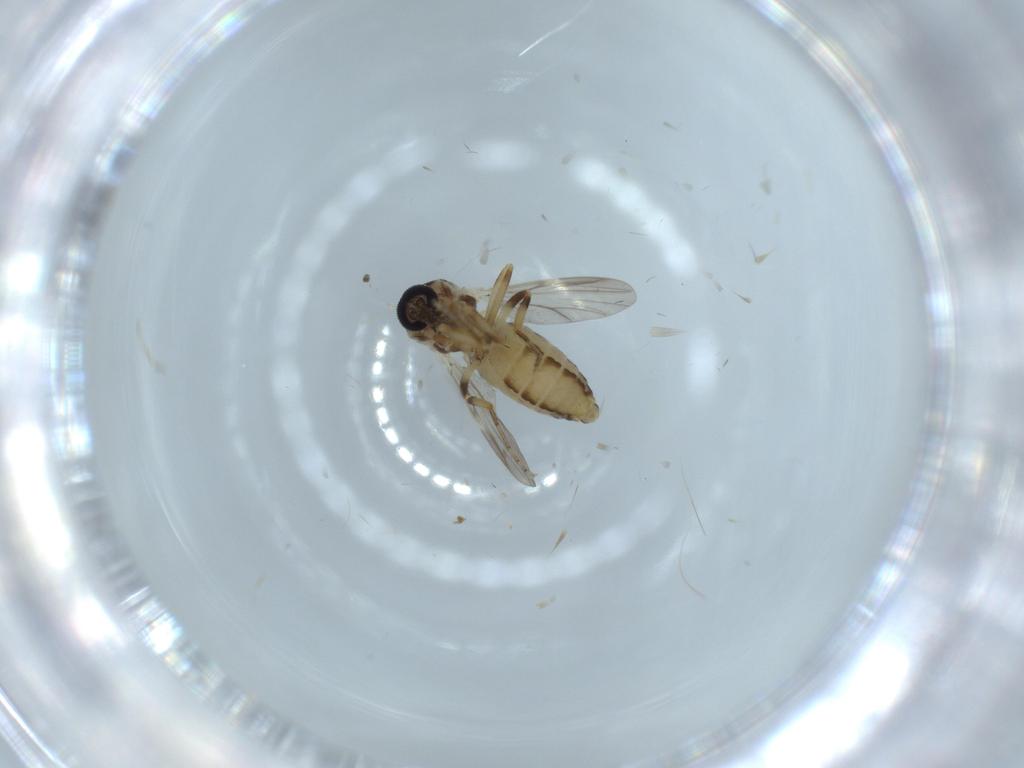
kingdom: Animalia
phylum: Arthropoda
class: Insecta
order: Diptera
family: Ceratopogonidae
